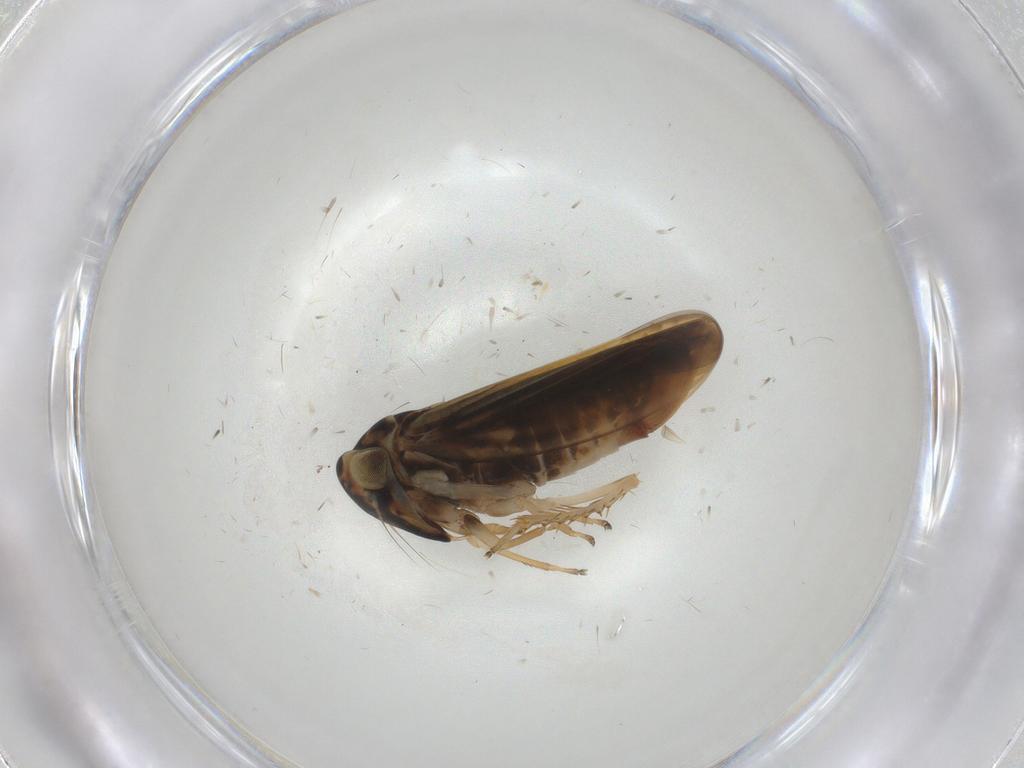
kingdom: Animalia
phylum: Arthropoda
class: Insecta
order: Hemiptera
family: Cicadellidae
